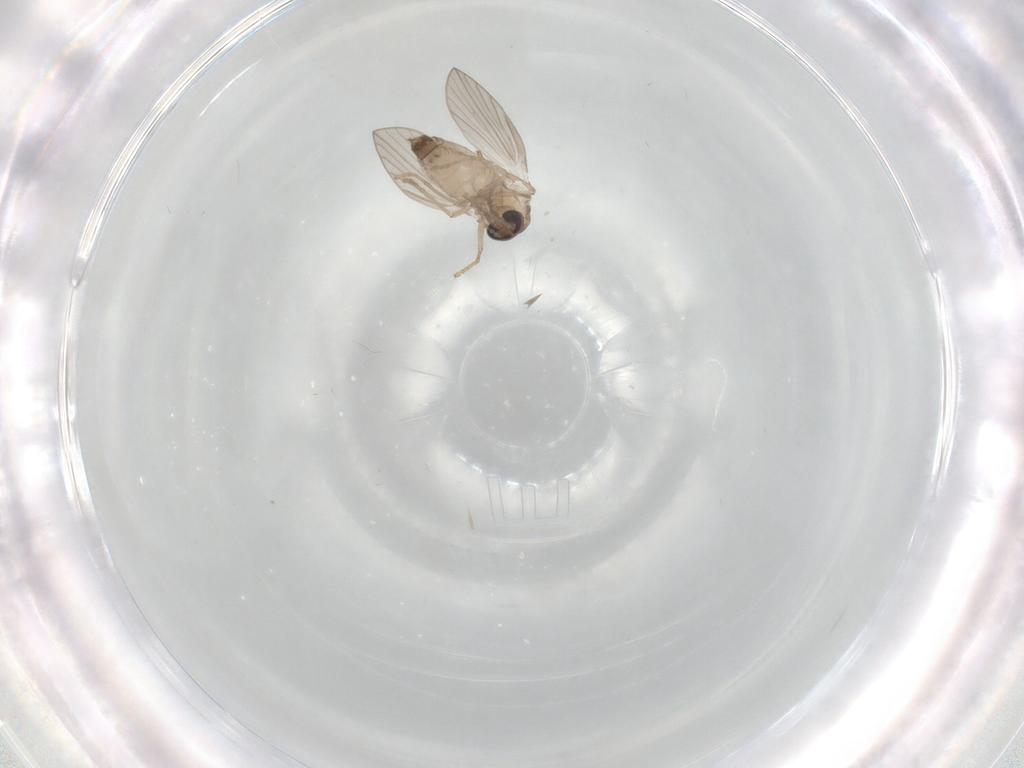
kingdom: Animalia
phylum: Arthropoda
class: Insecta
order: Diptera
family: Psychodidae
